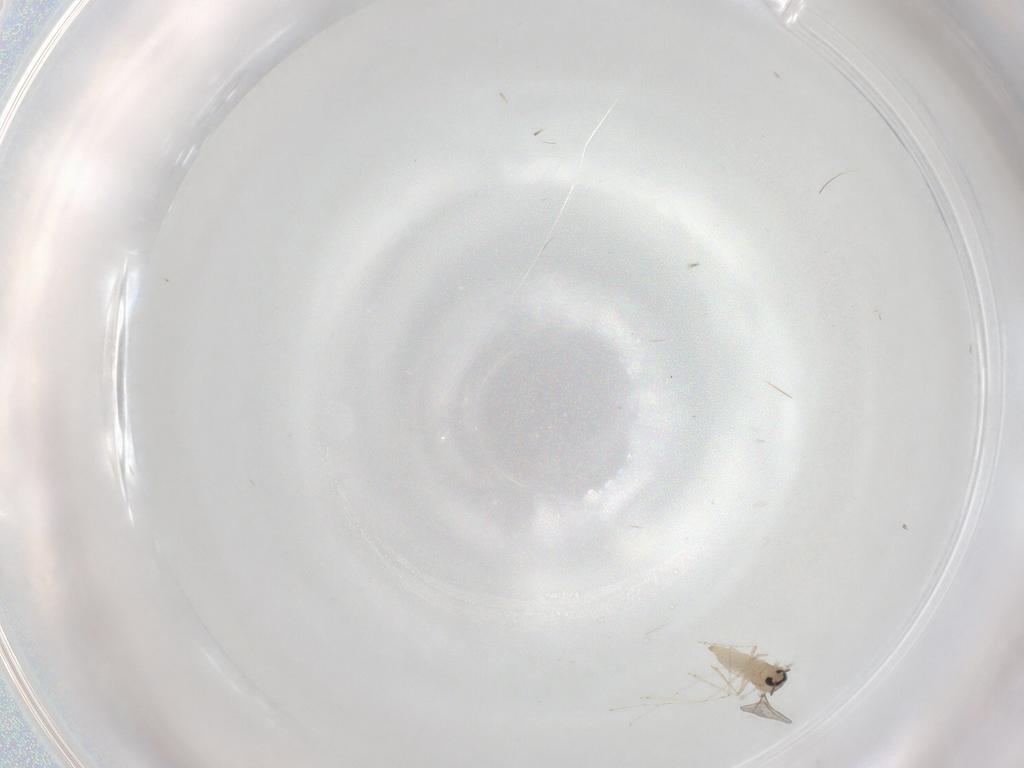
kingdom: Animalia
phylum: Arthropoda
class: Insecta
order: Diptera
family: Cecidomyiidae
